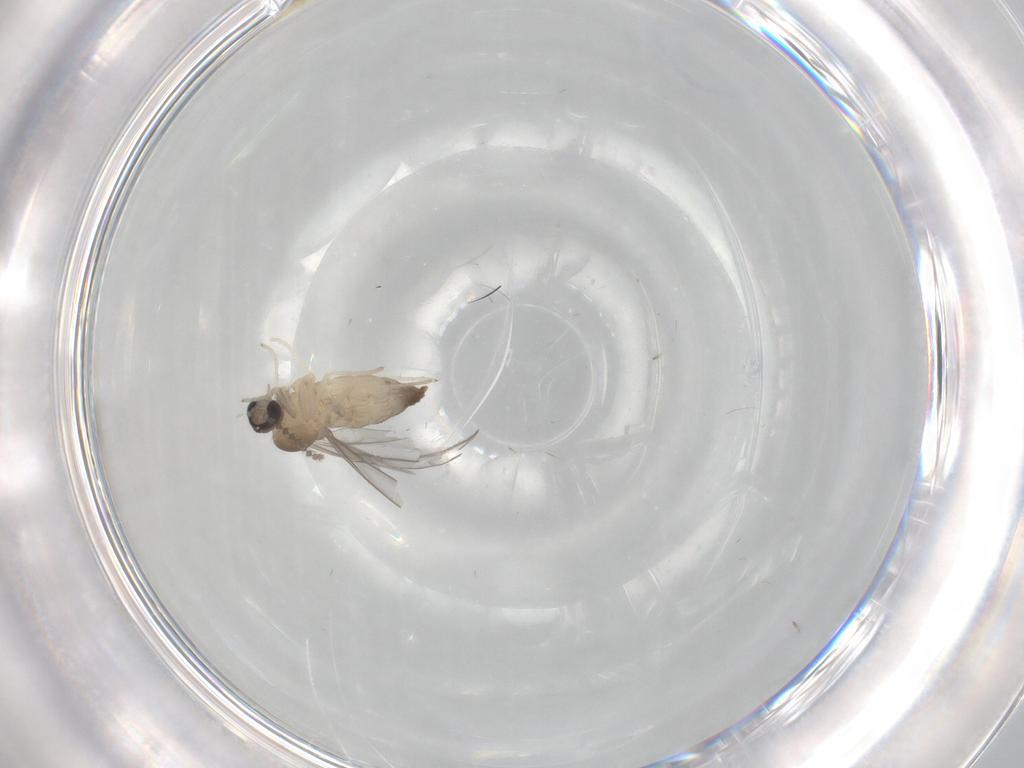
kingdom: Animalia
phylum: Arthropoda
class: Insecta
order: Diptera
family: Cecidomyiidae
